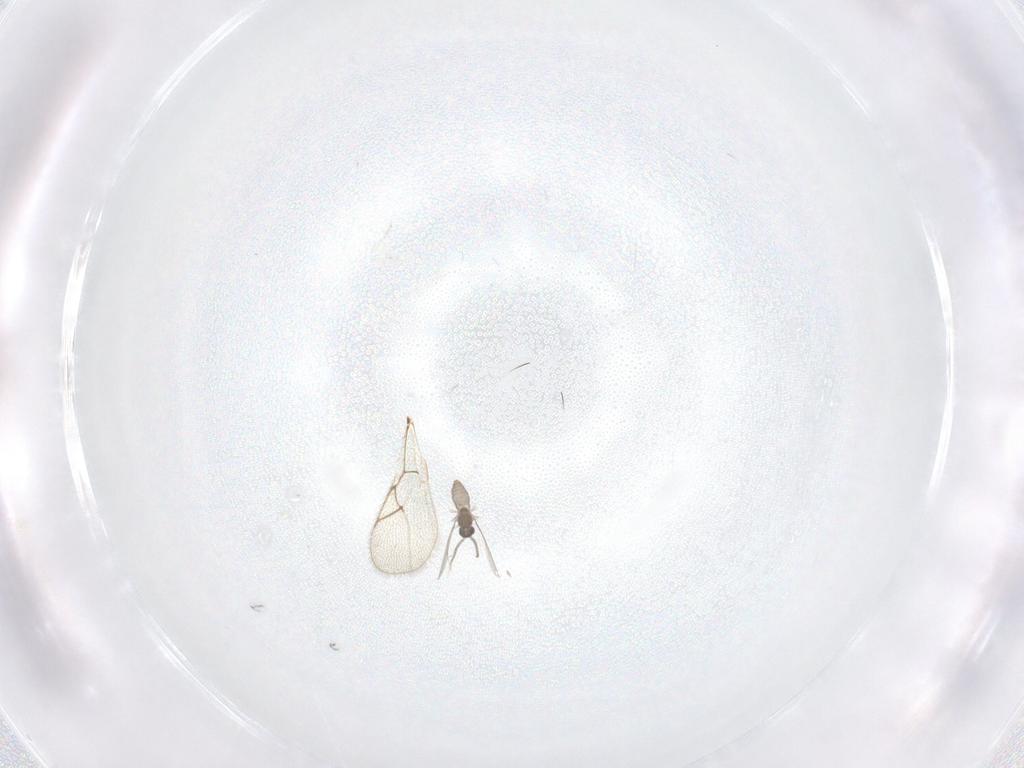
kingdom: Animalia
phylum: Arthropoda
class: Insecta
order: Diptera
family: Cecidomyiidae
